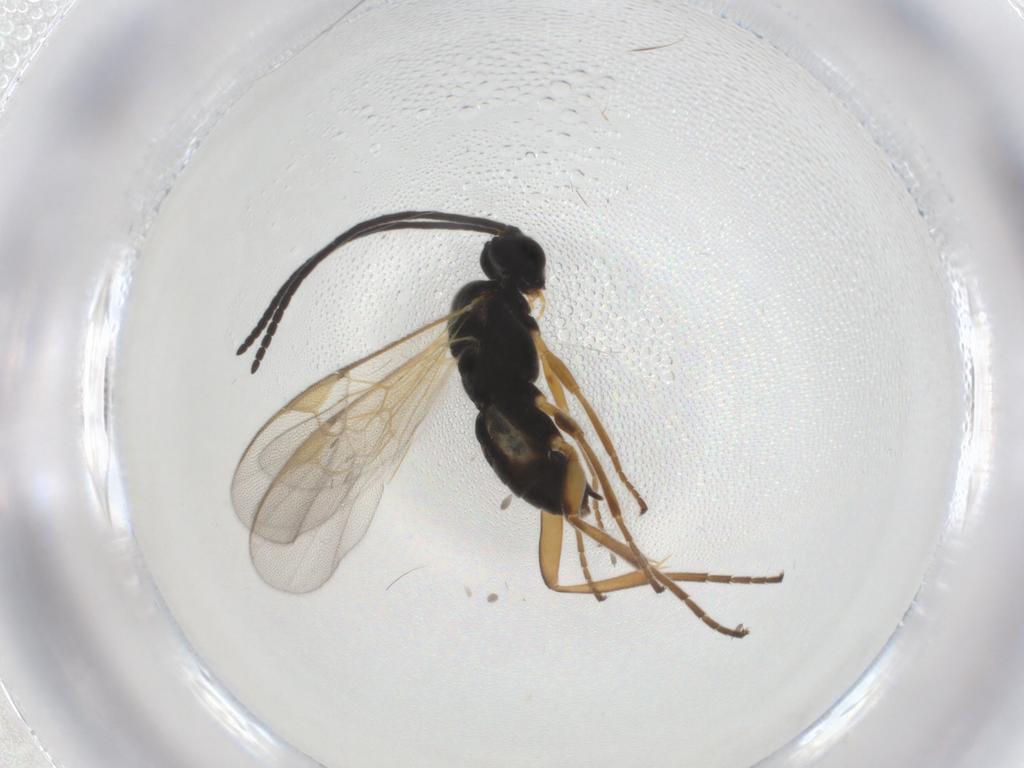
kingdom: Animalia
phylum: Arthropoda
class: Insecta
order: Hymenoptera
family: Braconidae
